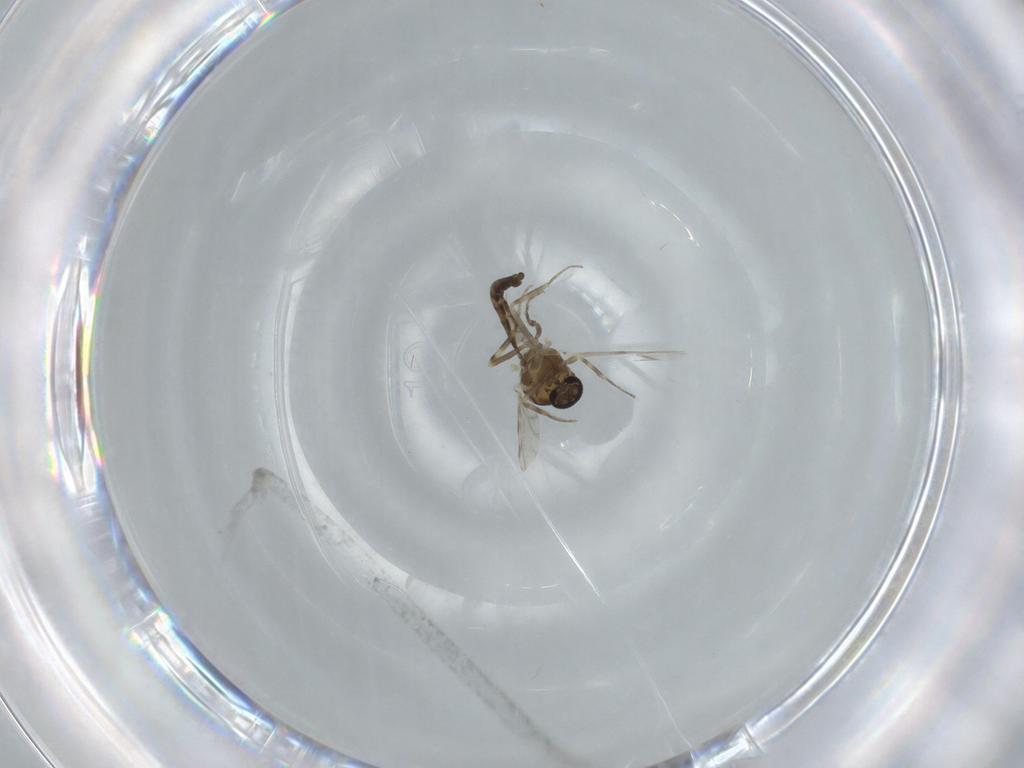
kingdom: Animalia
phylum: Arthropoda
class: Insecta
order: Diptera
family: Ceratopogonidae
